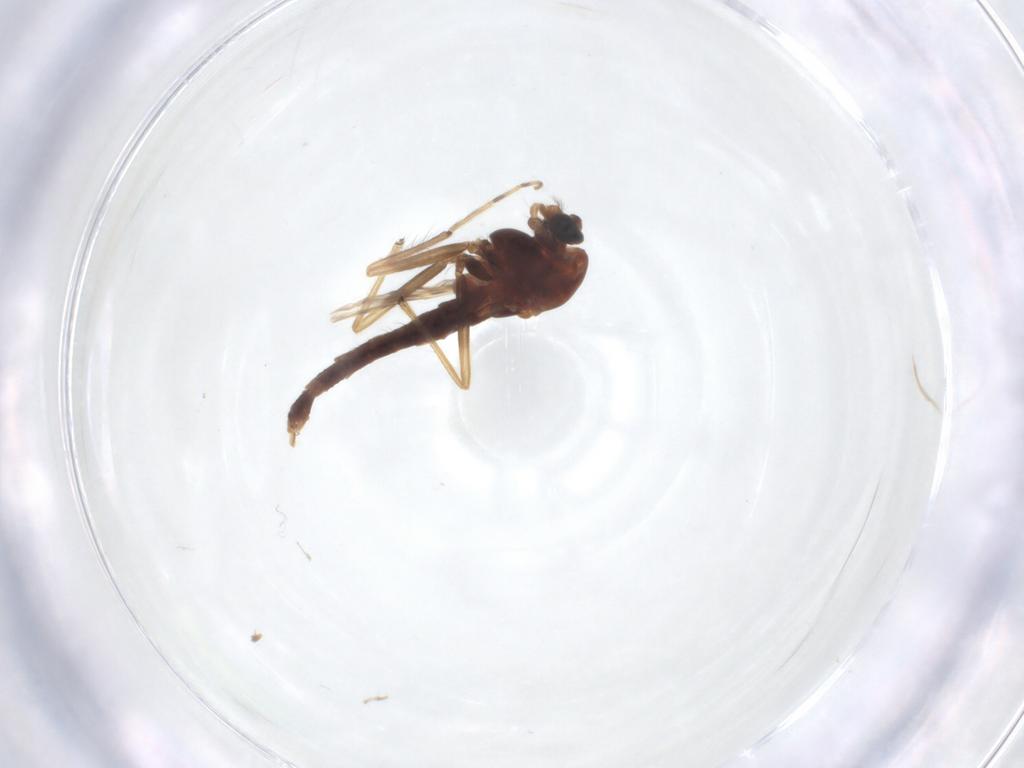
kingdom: Animalia
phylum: Arthropoda
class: Insecta
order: Diptera
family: Chironomidae
